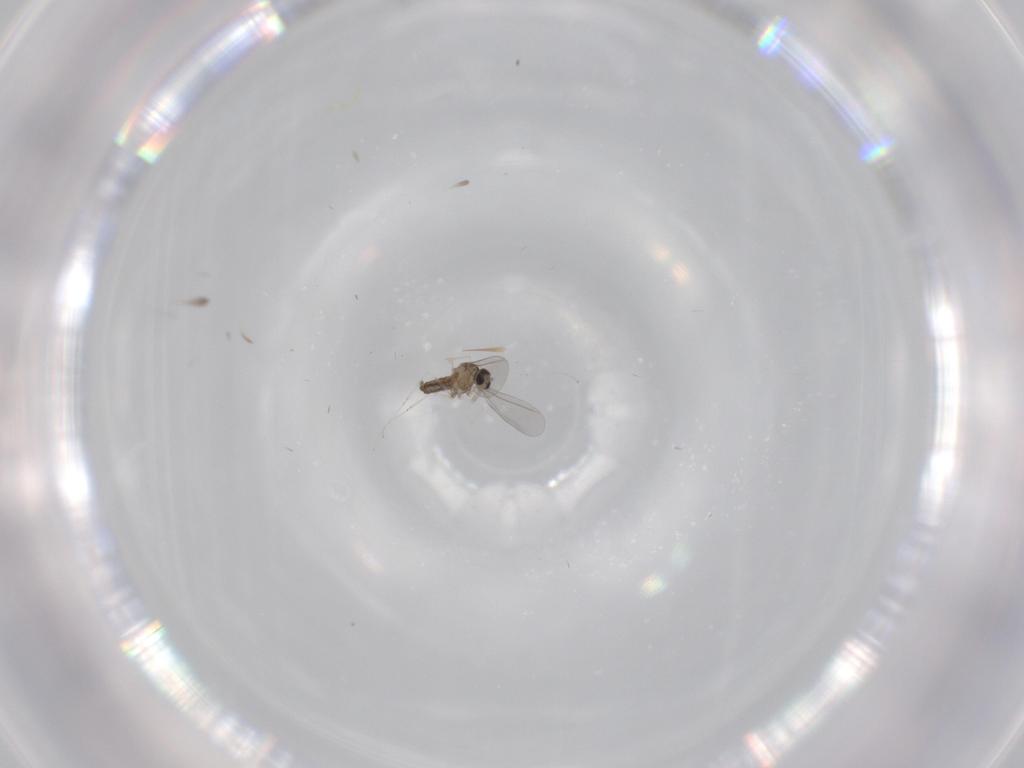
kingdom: Animalia
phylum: Arthropoda
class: Insecta
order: Diptera
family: Cecidomyiidae
